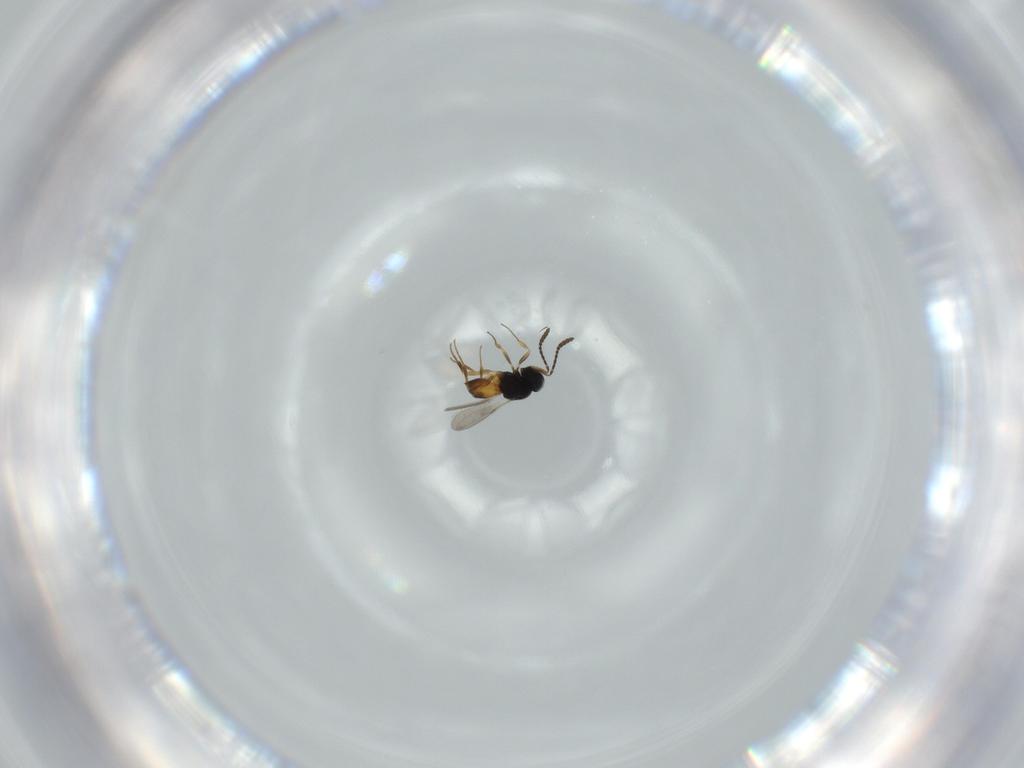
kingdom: Animalia
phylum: Arthropoda
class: Insecta
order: Hymenoptera
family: Scelionidae
